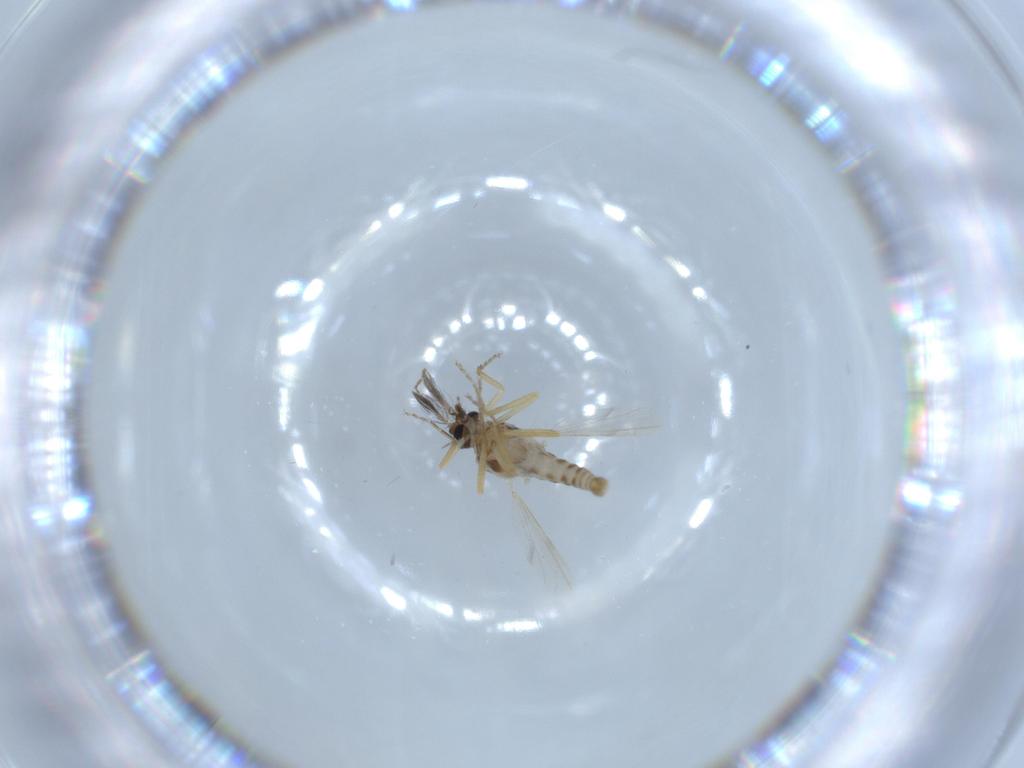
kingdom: Animalia
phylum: Arthropoda
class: Insecta
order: Diptera
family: Ceratopogonidae
